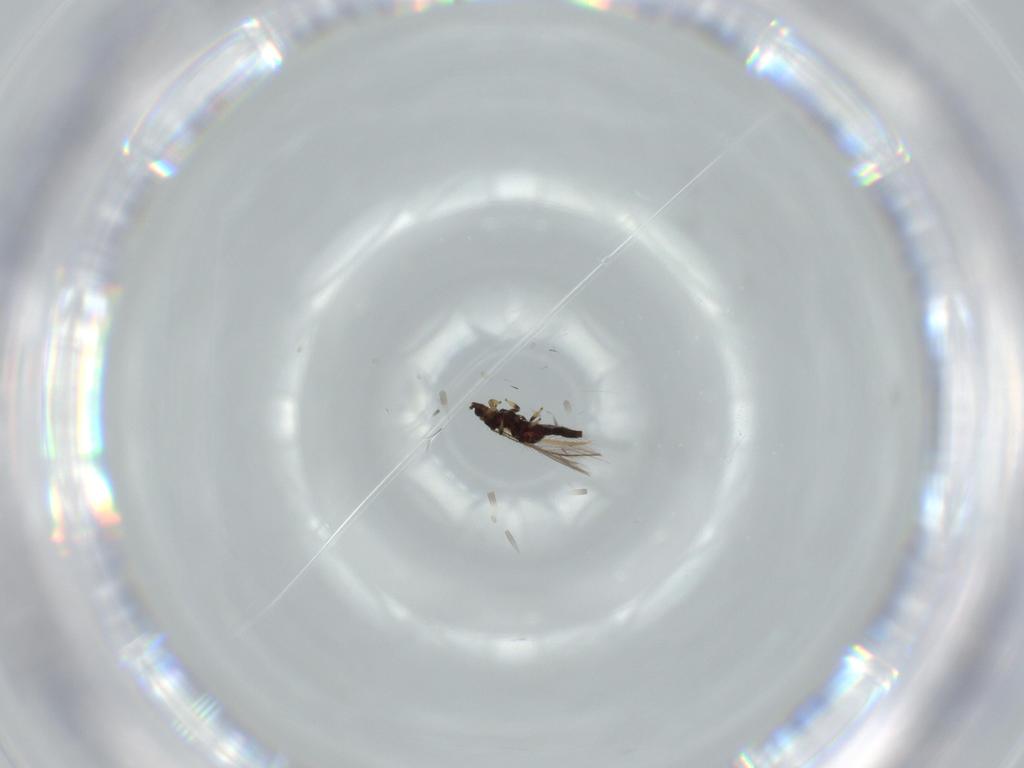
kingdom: Animalia
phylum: Arthropoda
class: Insecta
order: Thysanoptera
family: Thripidae
